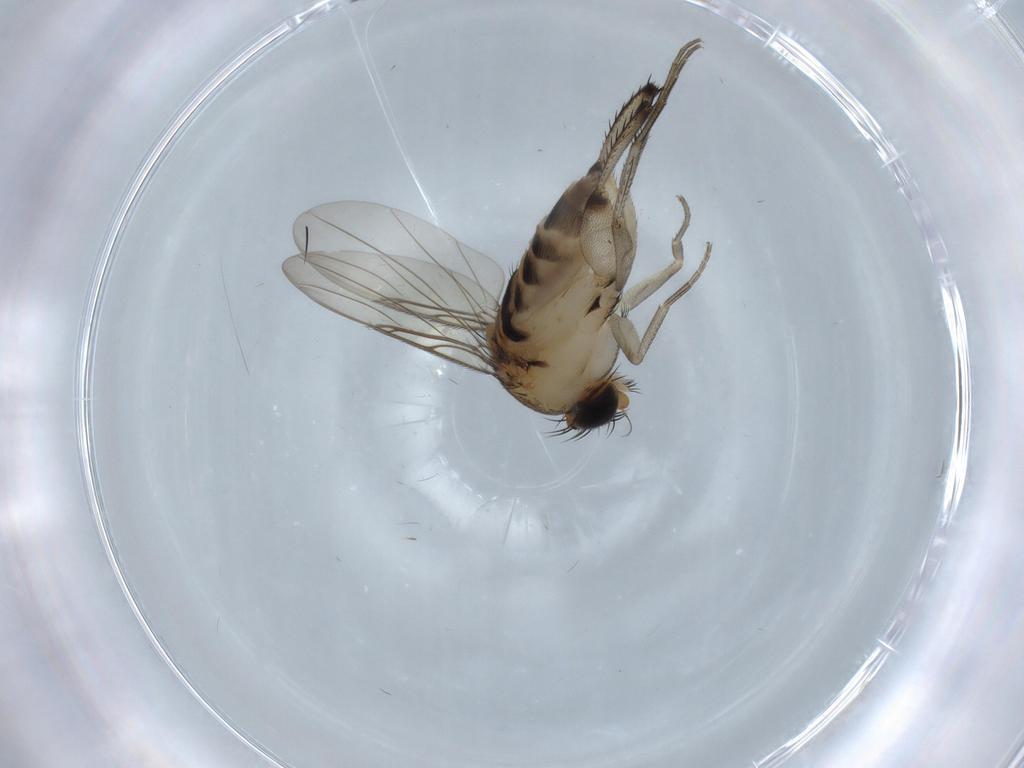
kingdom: Animalia
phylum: Arthropoda
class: Insecta
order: Diptera
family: Phoridae
